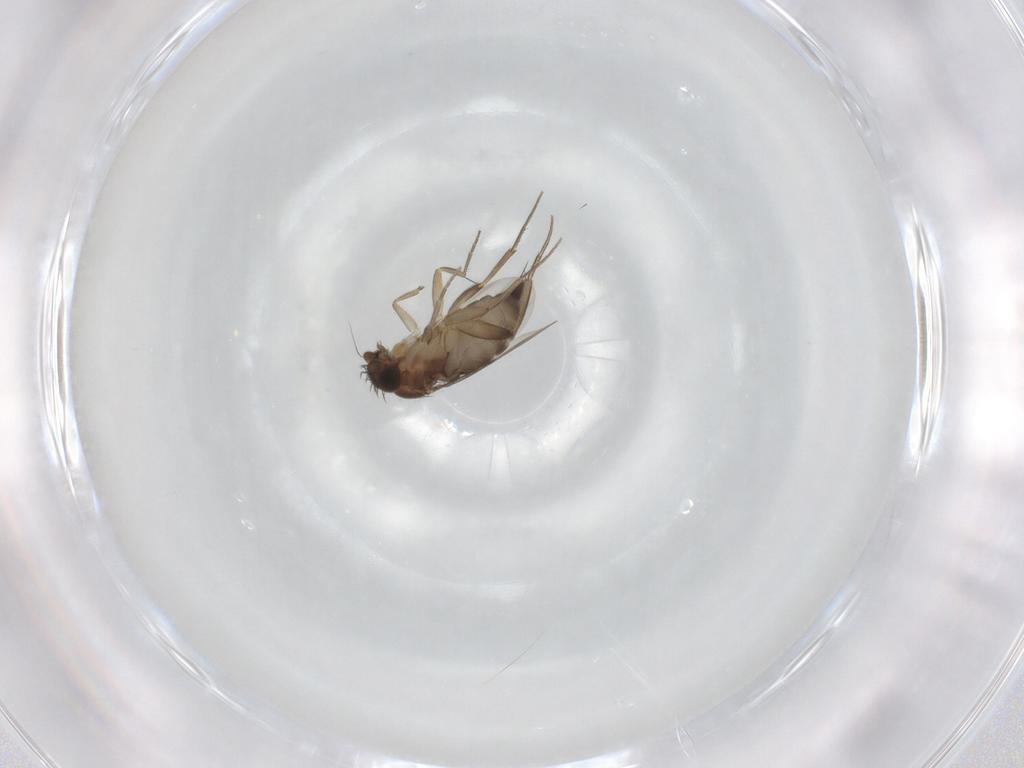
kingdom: Animalia
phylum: Arthropoda
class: Insecta
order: Diptera
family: Phoridae
